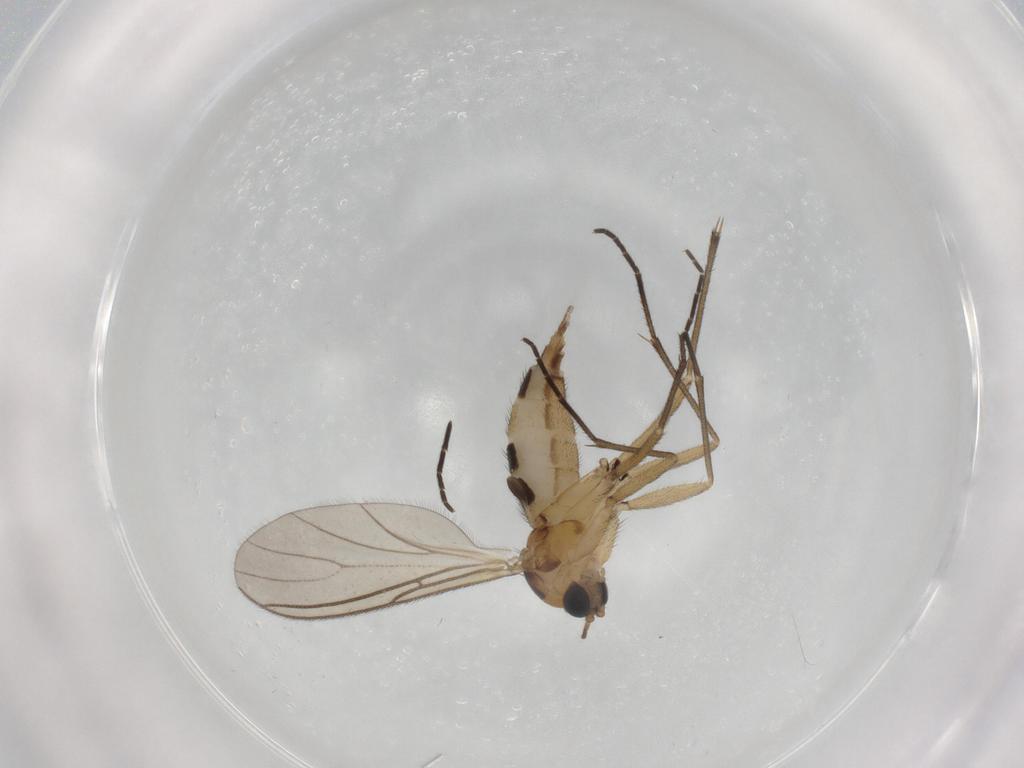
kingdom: Animalia
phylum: Arthropoda
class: Insecta
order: Diptera
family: Sciaridae
